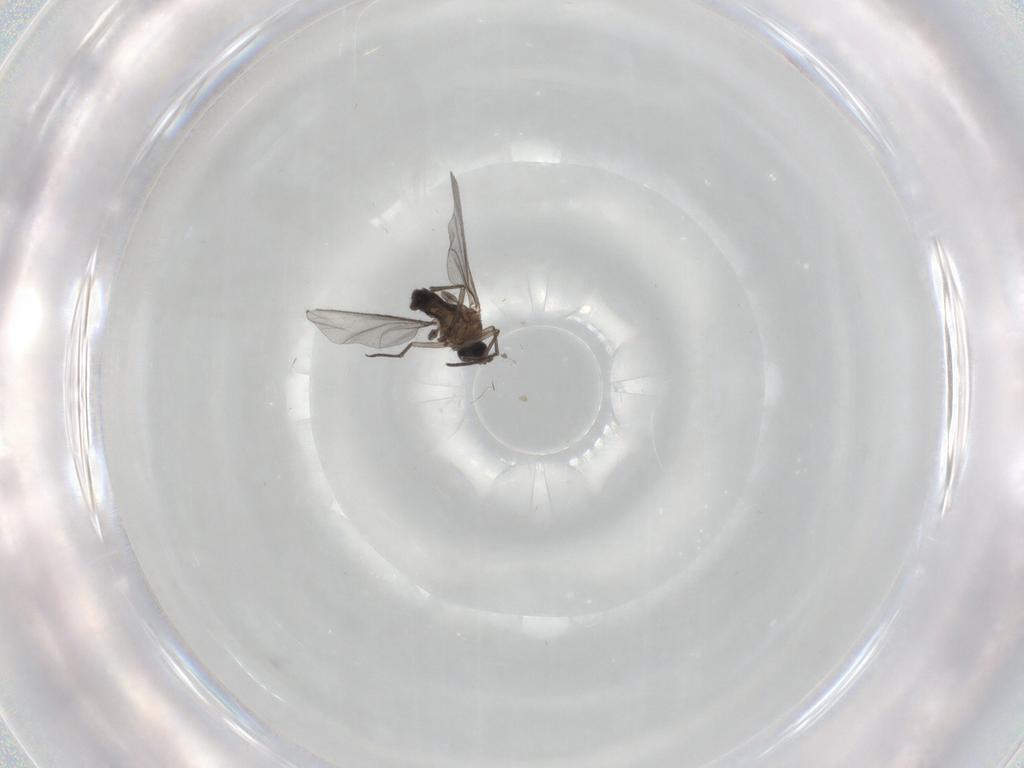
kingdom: Animalia
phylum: Arthropoda
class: Insecta
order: Diptera
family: Sciaridae
